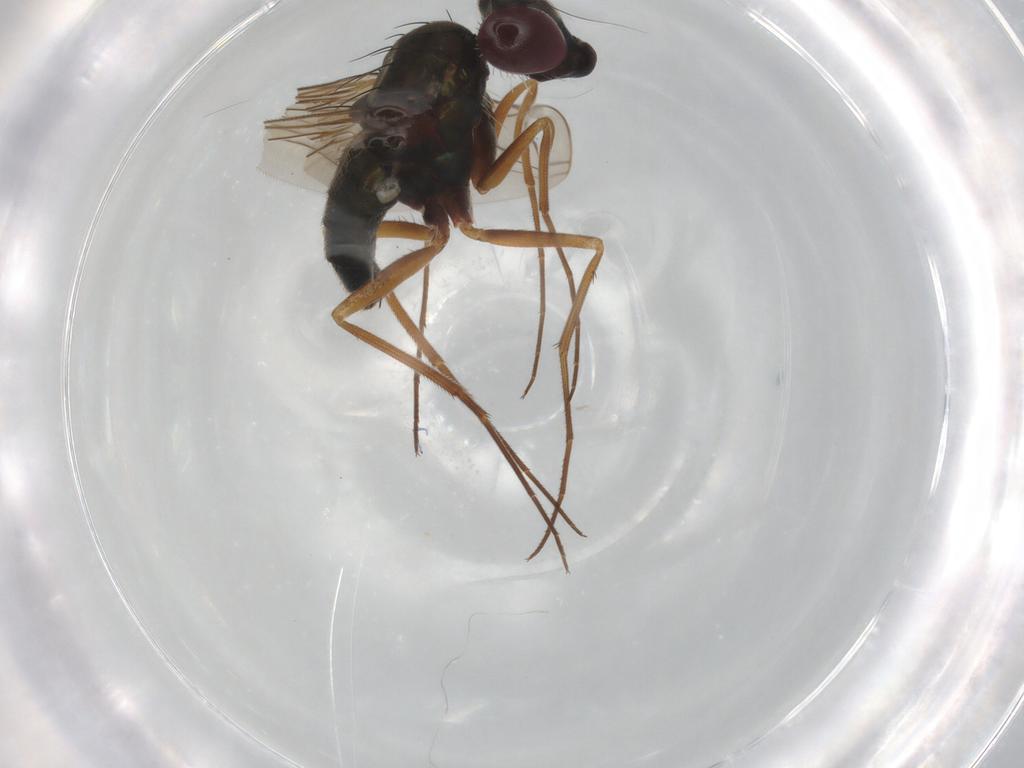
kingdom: Animalia
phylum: Arthropoda
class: Insecta
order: Diptera
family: Dolichopodidae
